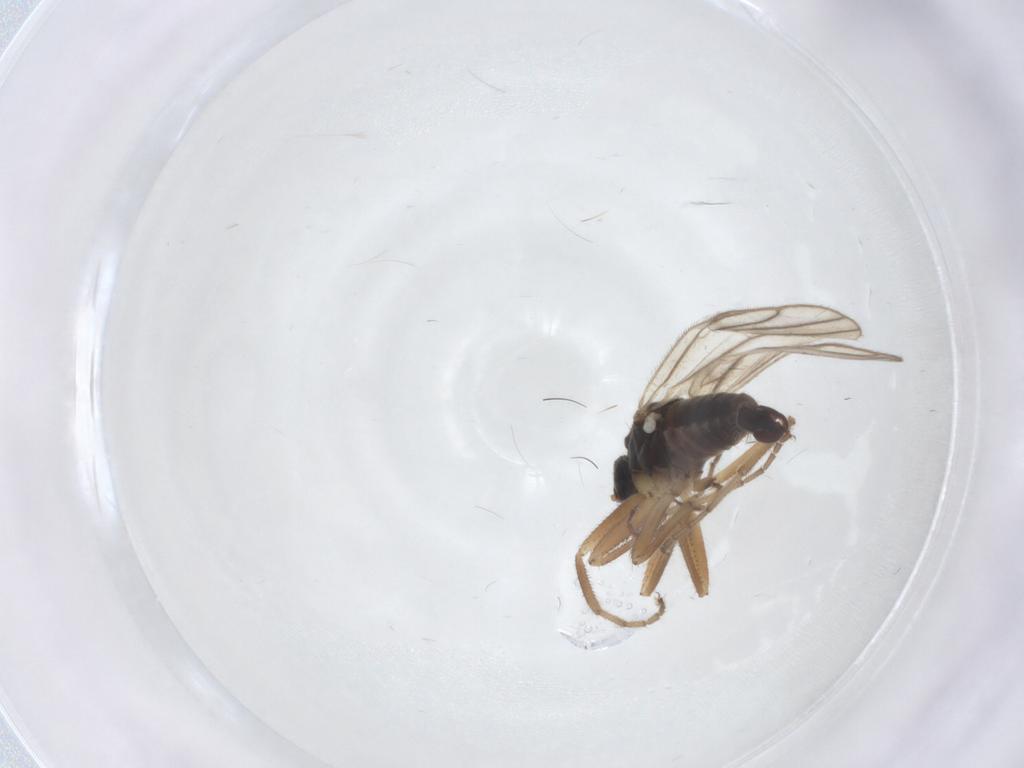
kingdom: Animalia
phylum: Arthropoda
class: Insecta
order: Diptera
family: Hybotidae
